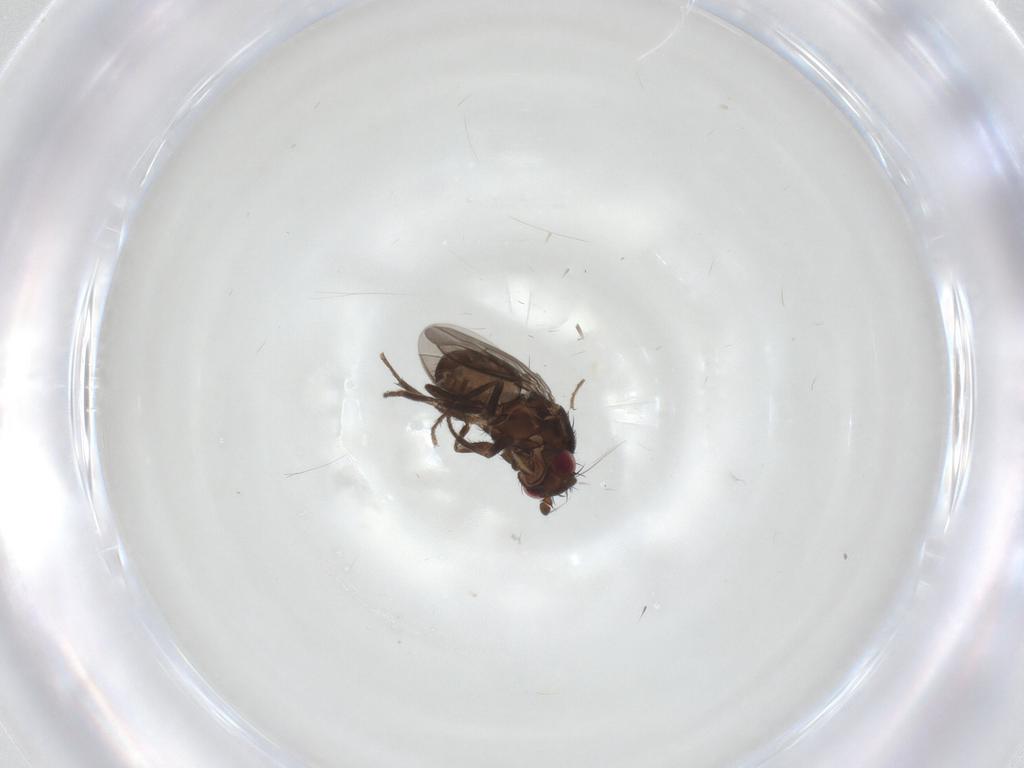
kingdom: Animalia
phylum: Arthropoda
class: Insecta
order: Diptera
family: Sphaeroceridae
